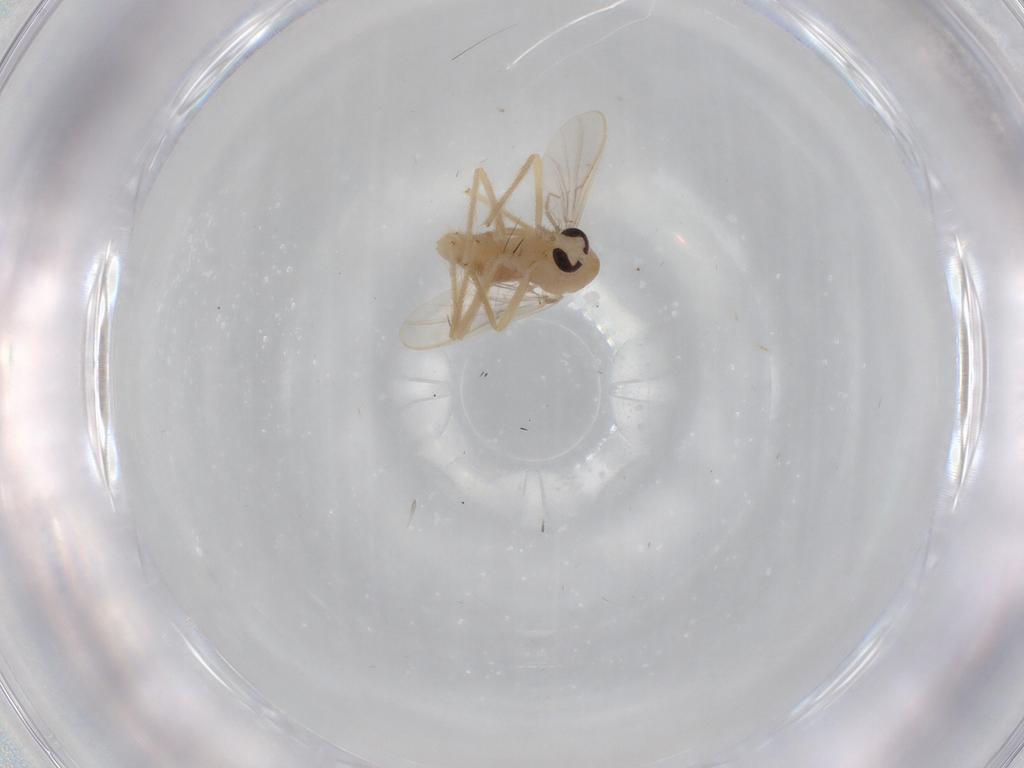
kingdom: Animalia
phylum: Arthropoda
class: Insecta
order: Diptera
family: Chironomidae
